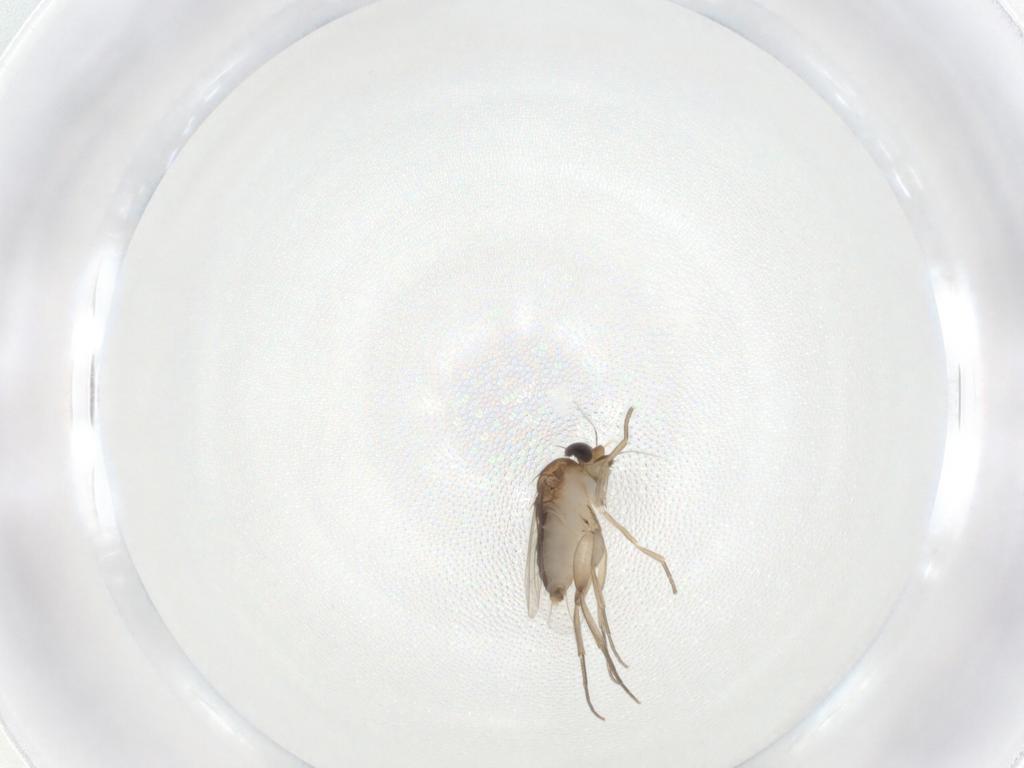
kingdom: Animalia
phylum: Arthropoda
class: Insecta
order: Diptera
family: Phoridae
